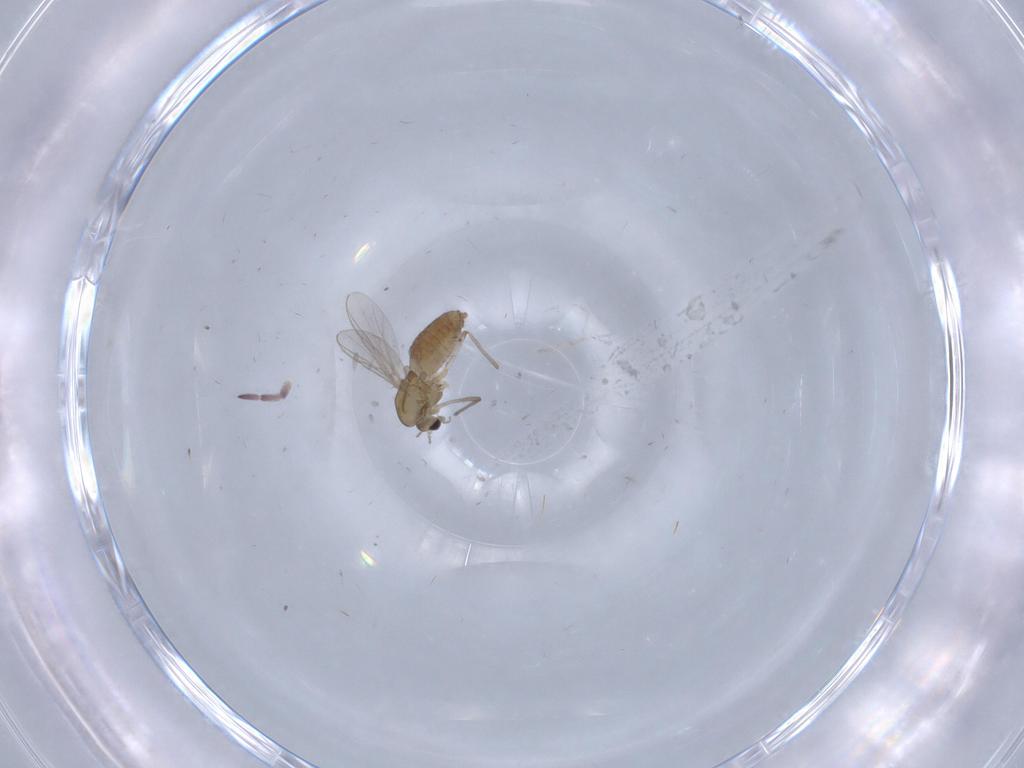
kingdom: Animalia
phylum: Arthropoda
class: Insecta
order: Diptera
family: Chironomidae
